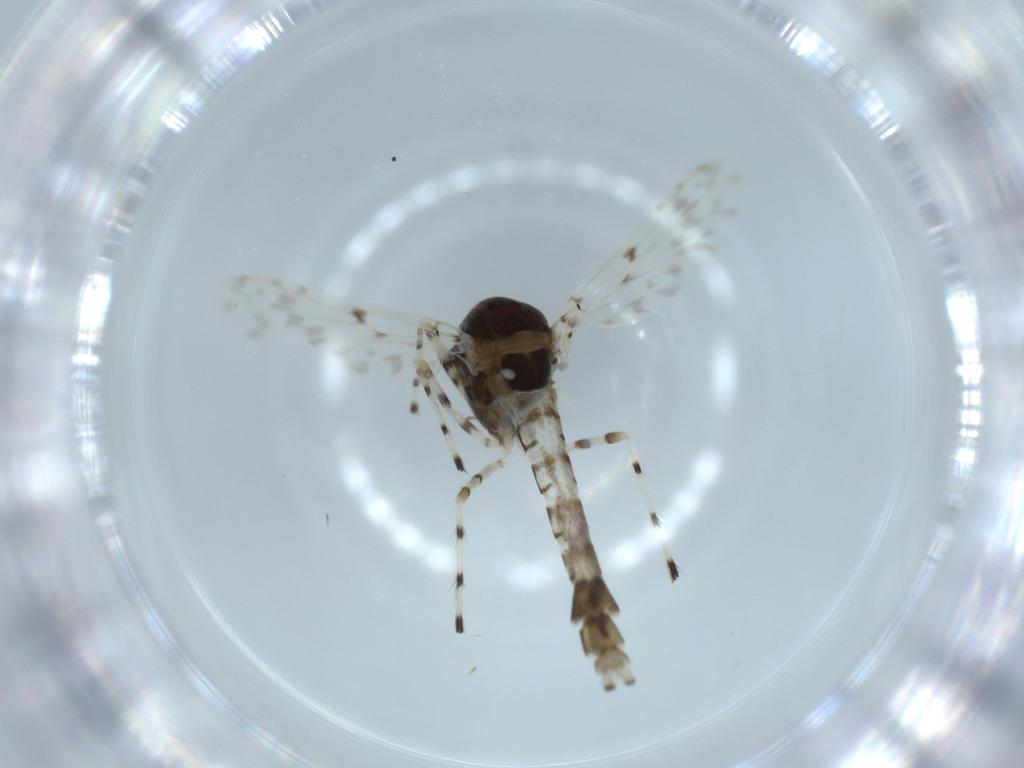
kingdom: Animalia
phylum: Arthropoda
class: Insecta
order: Diptera
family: Chironomidae
